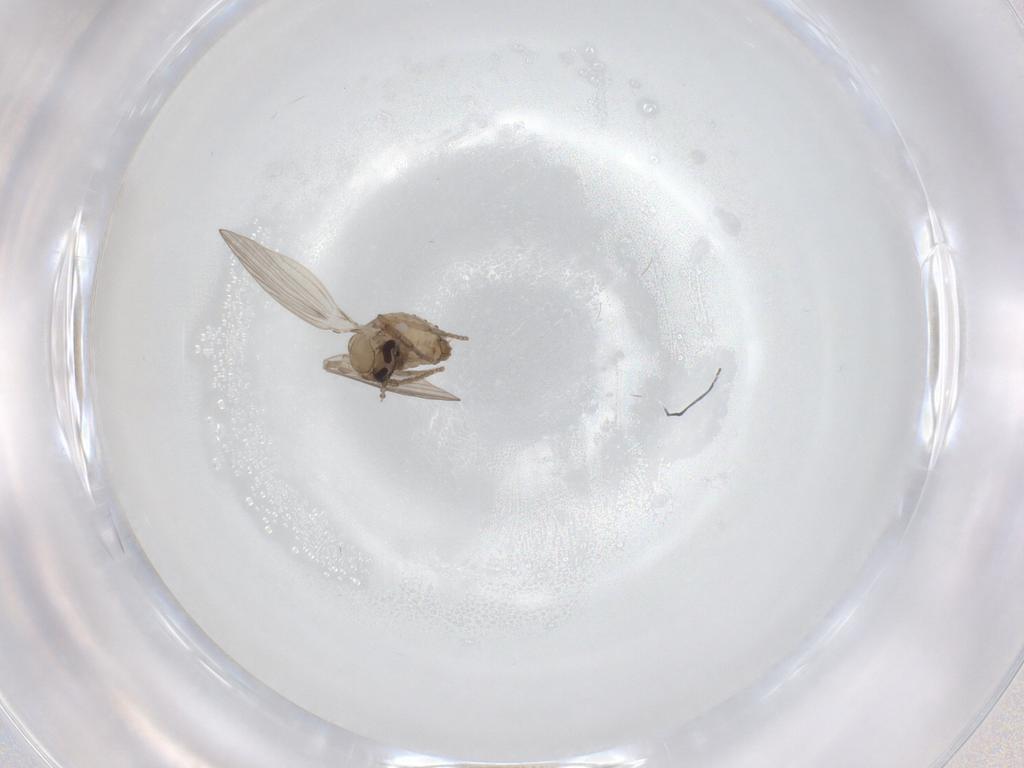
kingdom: Animalia
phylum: Arthropoda
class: Insecta
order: Diptera
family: Psychodidae
